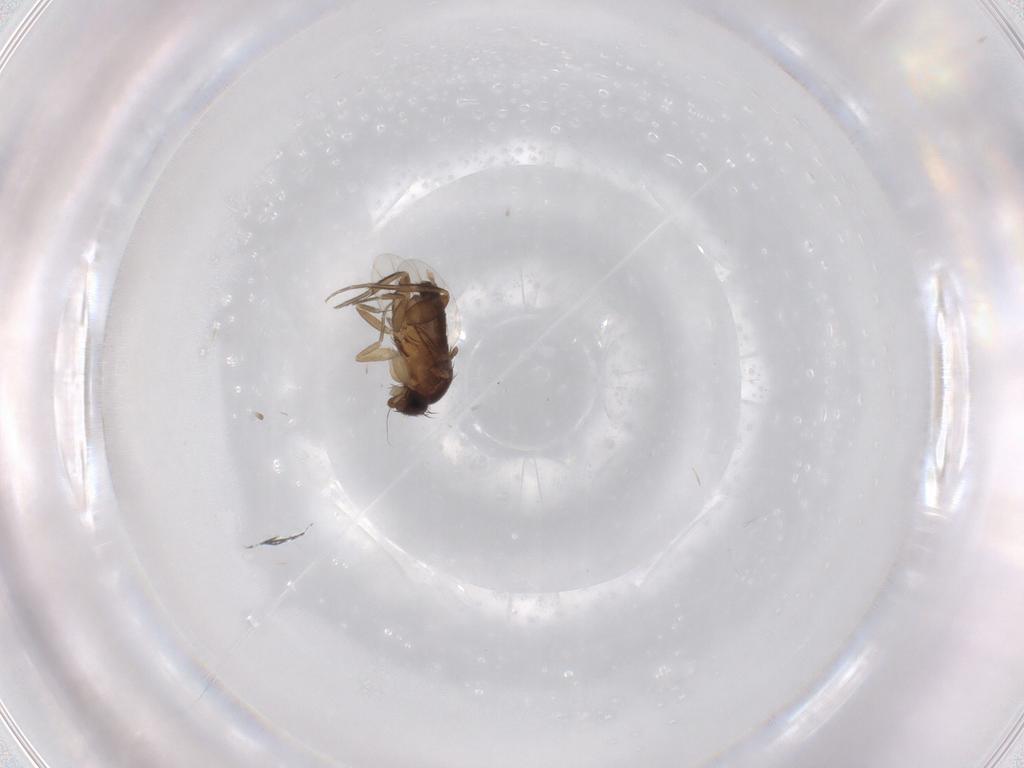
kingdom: Animalia
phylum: Arthropoda
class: Insecta
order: Diptera
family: Phoridae
